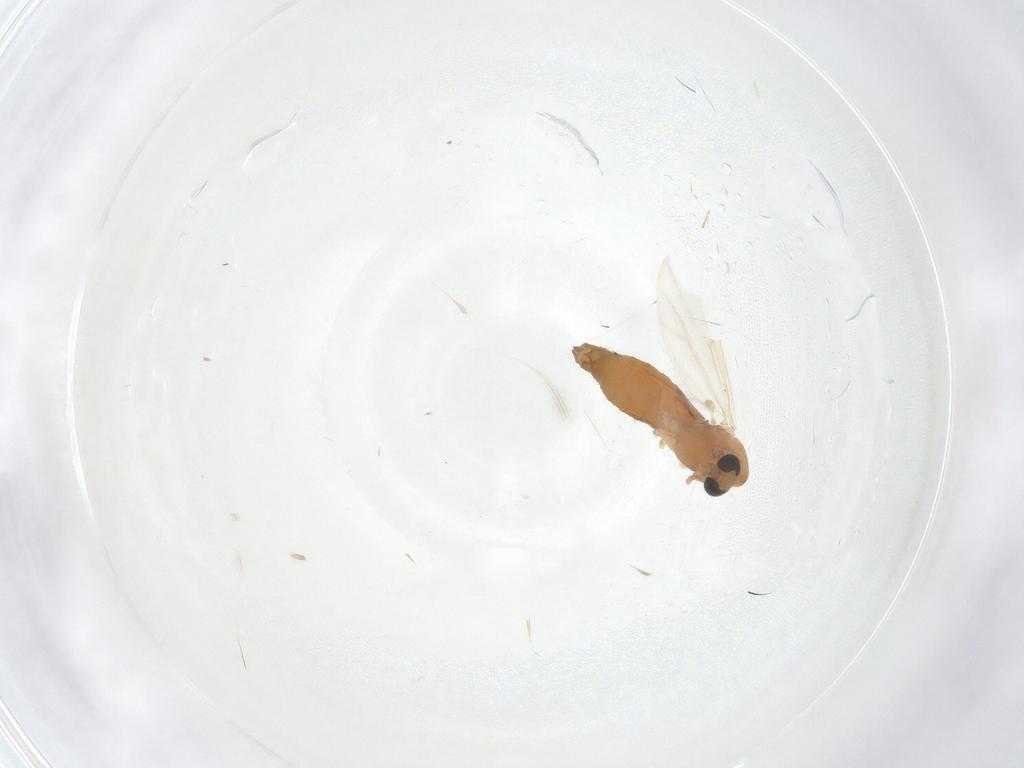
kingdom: Animalia
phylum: Arthropoda
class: Insecta
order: Diptera
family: Chironomidae
